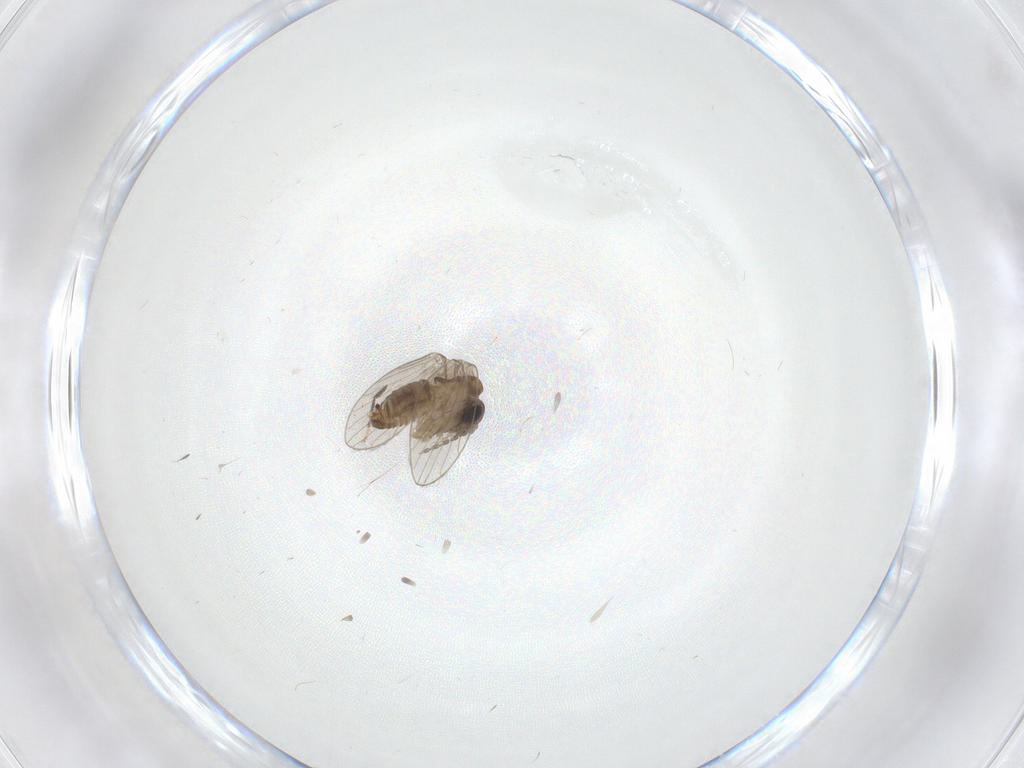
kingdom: Animalia
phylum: Arthropoda
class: Insecta
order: Diptera
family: Ceratopogonidae
